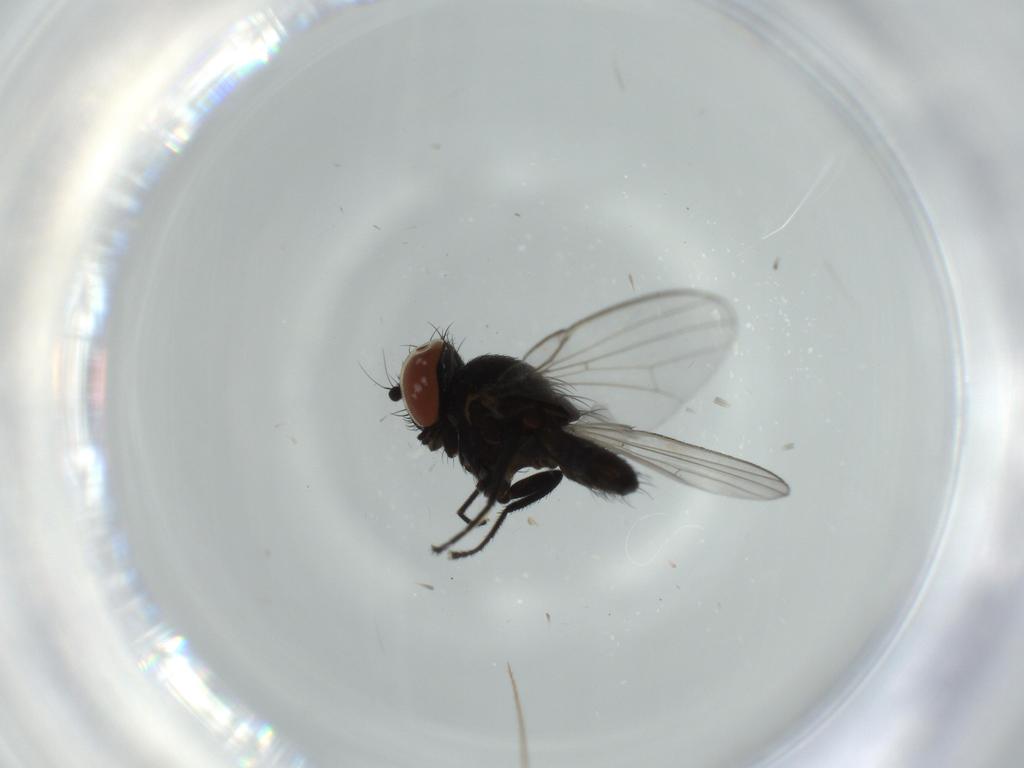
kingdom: Animalia
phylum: Arthropoda
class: Insecta
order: Diptera
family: Milichiidae
